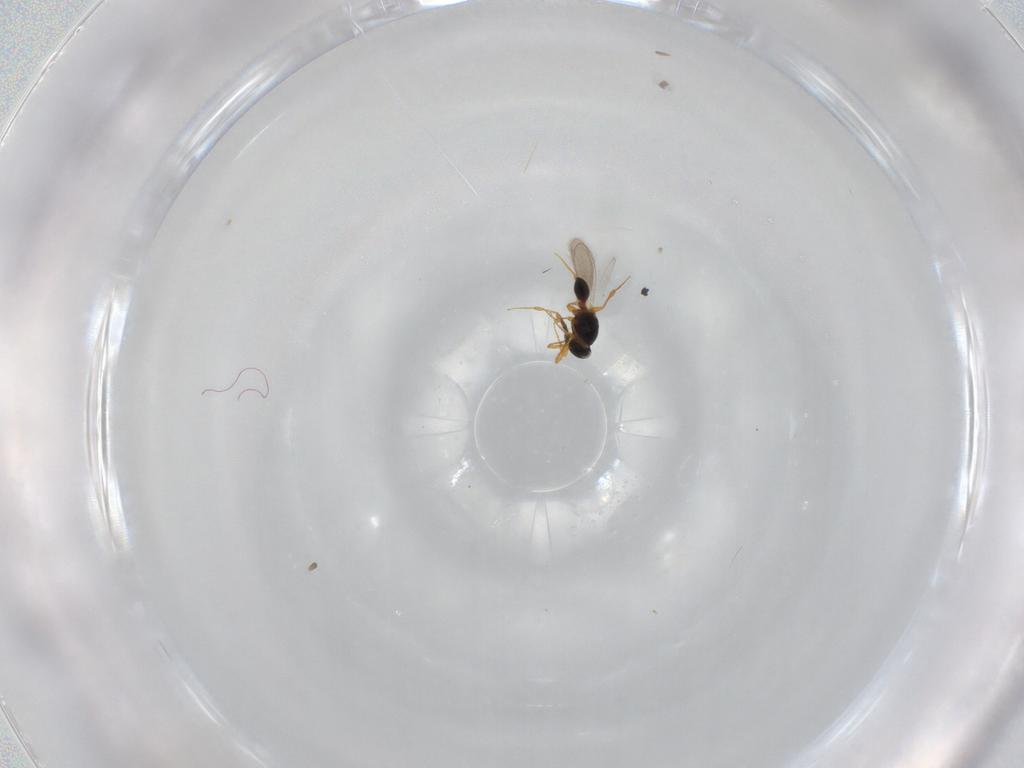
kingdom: Animalia
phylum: Arthropoda
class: Insecta
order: Hymenoptera
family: Platygastridae
